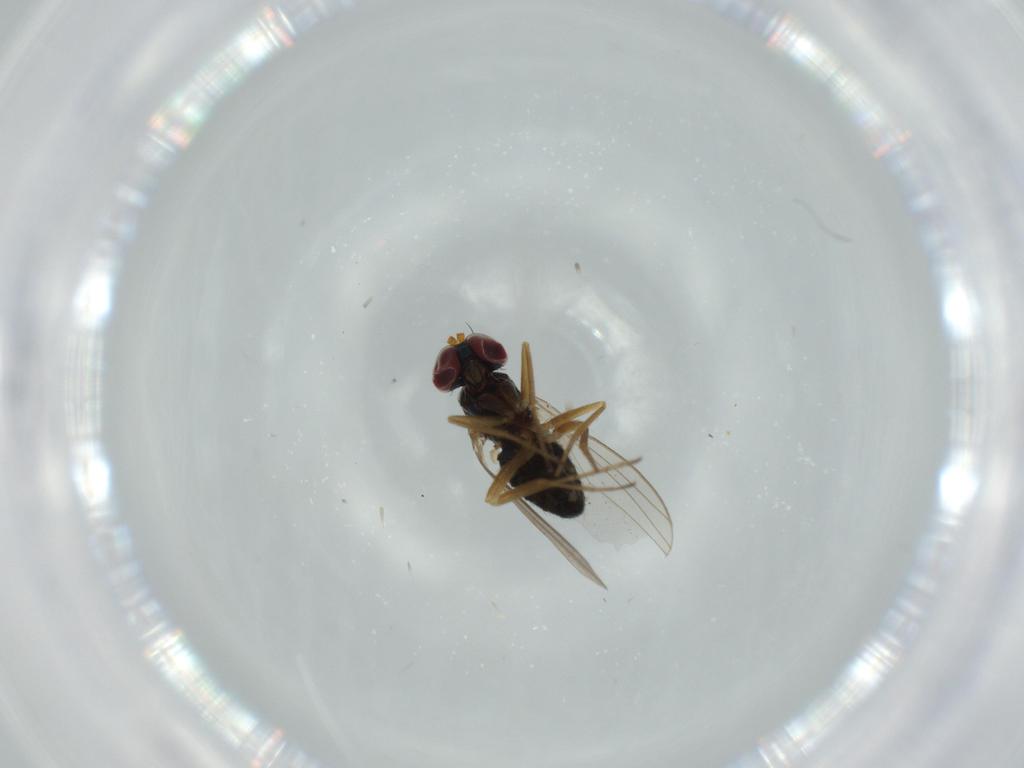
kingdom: Animalia
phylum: Arthropoda
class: Insecta
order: Diptera
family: Dolichopodidae
